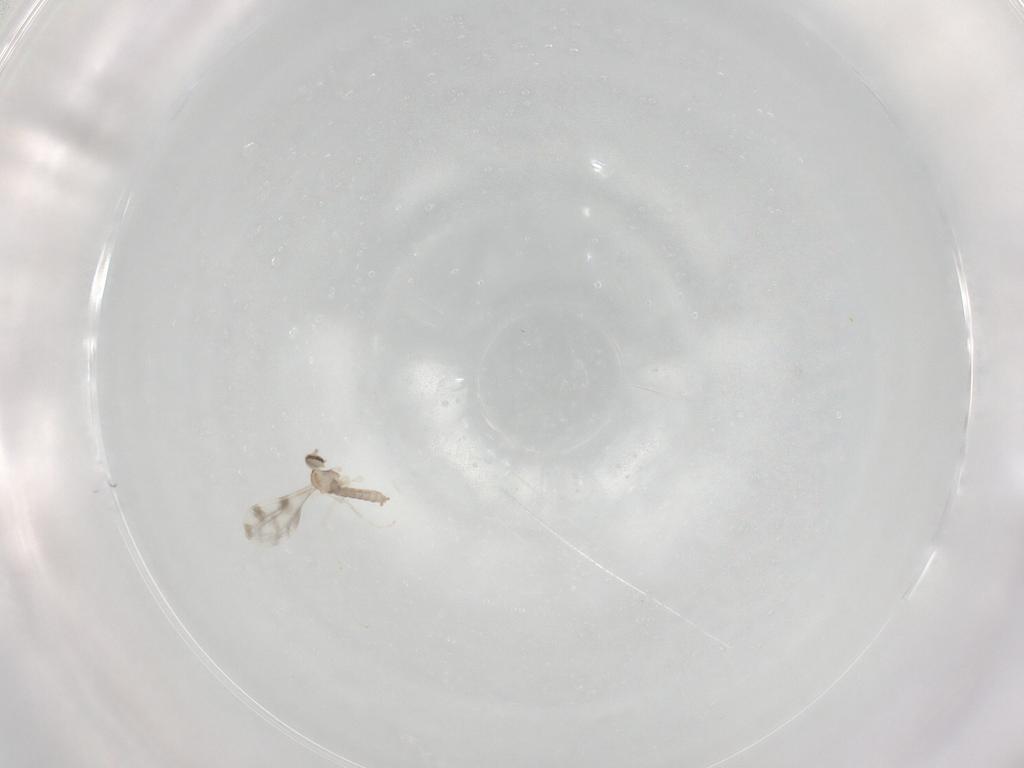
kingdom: Animalia
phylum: Arthropoda
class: Insecta
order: Diptera
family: Cecidomyiidae
